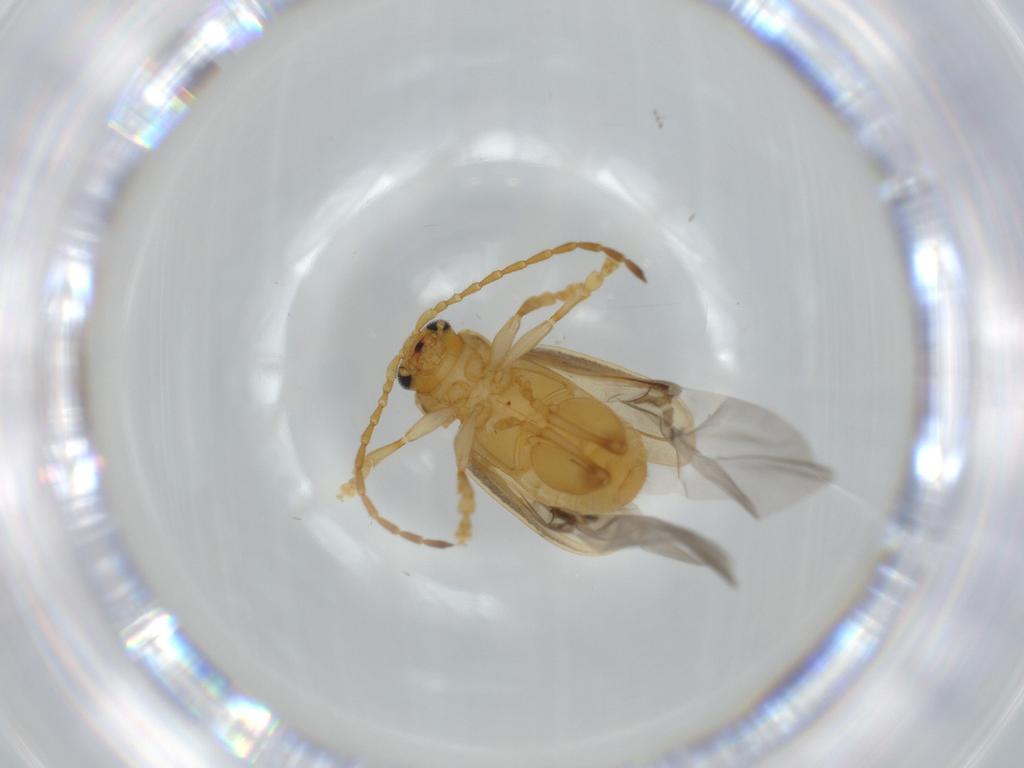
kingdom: Animalia
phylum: Arthropoda
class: Insecta
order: Coleoptera
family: Chrysomelidae
